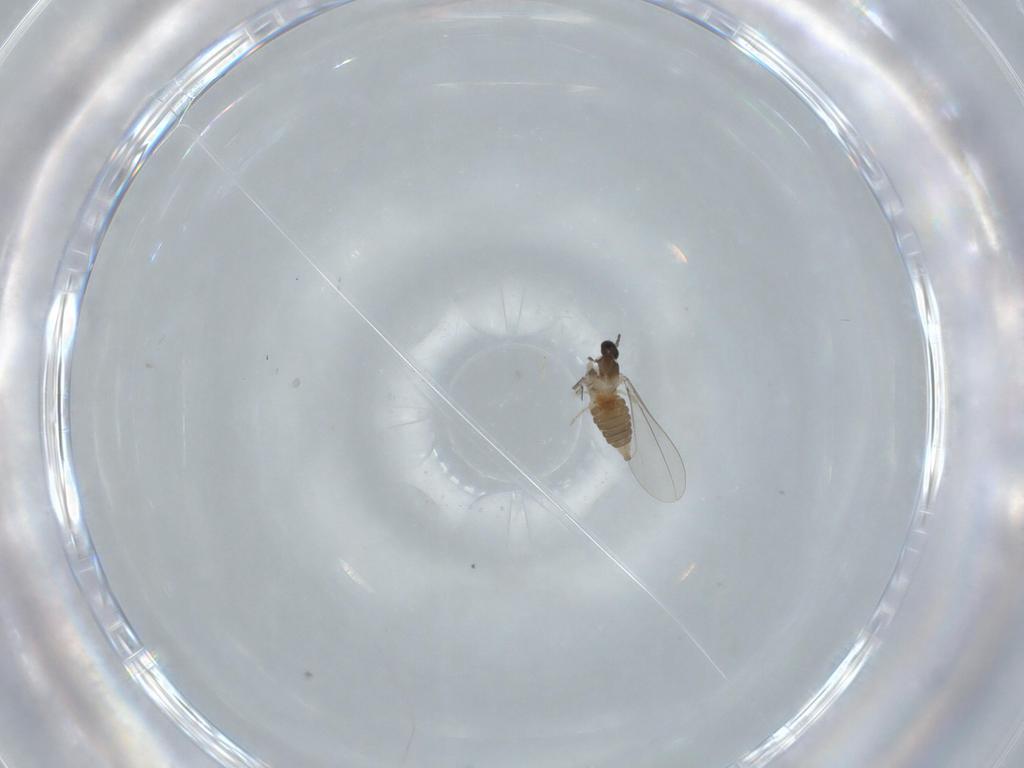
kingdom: Animalia
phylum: Arthropoda
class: Insecta
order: Diptera
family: Cecidomyiidae
